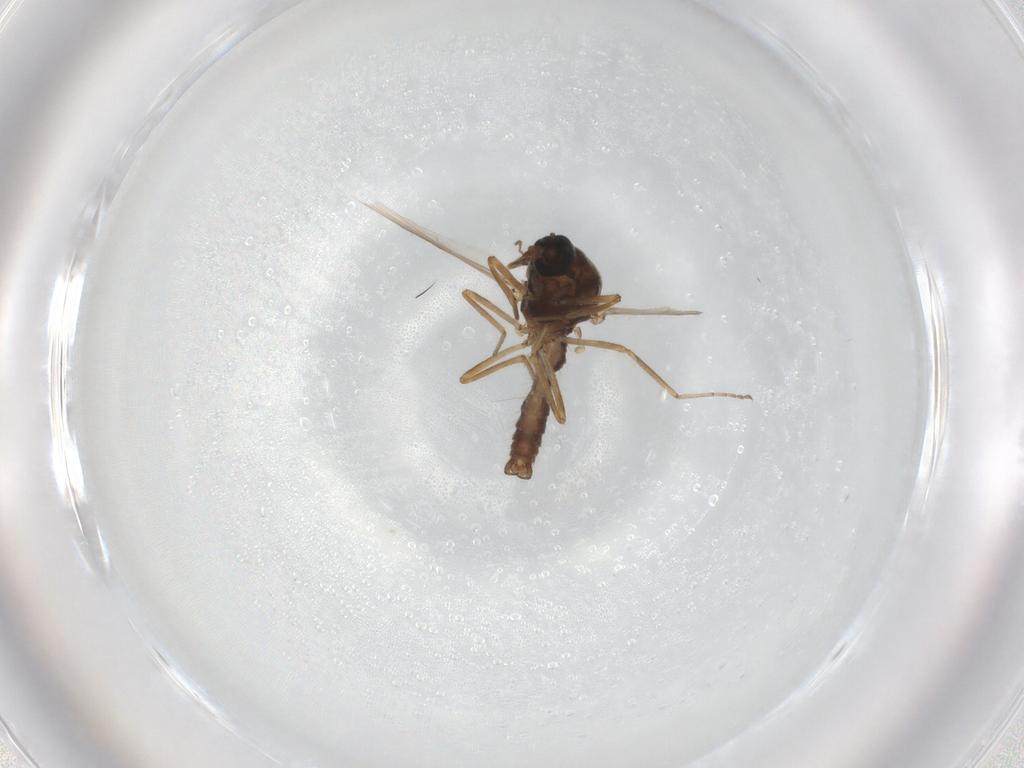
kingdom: Animalia
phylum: Arthropoda
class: Insecta
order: Diptera
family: Ceratopogonidae
